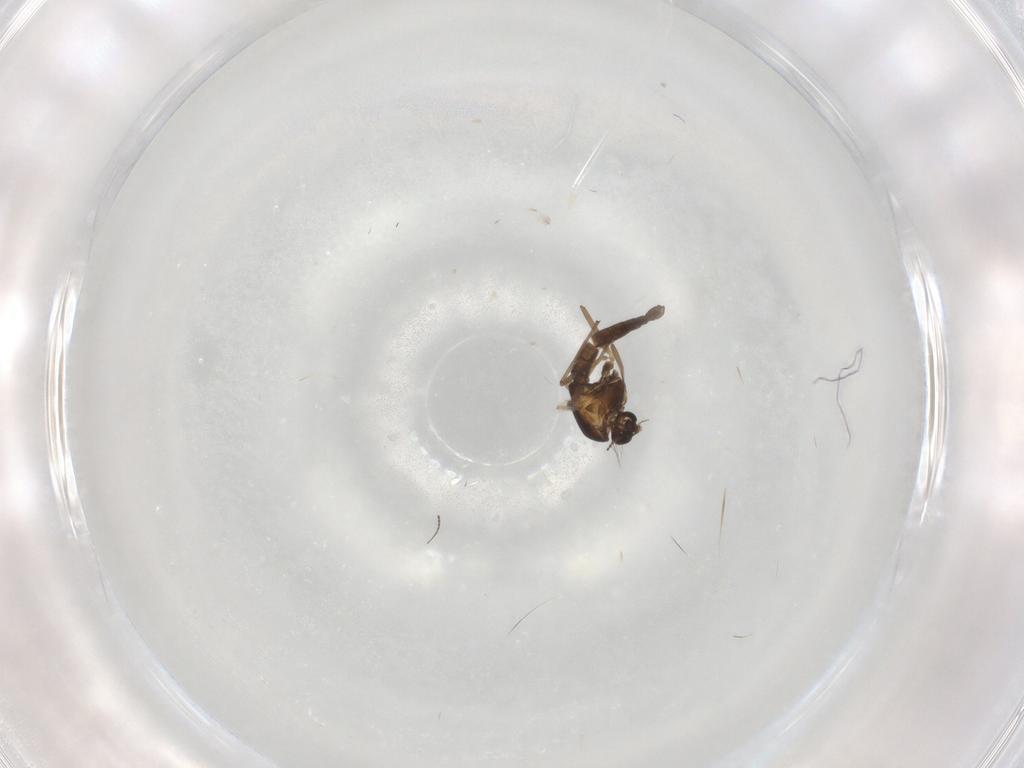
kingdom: Animalia
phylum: Arthropoda
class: Insecta
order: Diptera
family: Chironomidae
